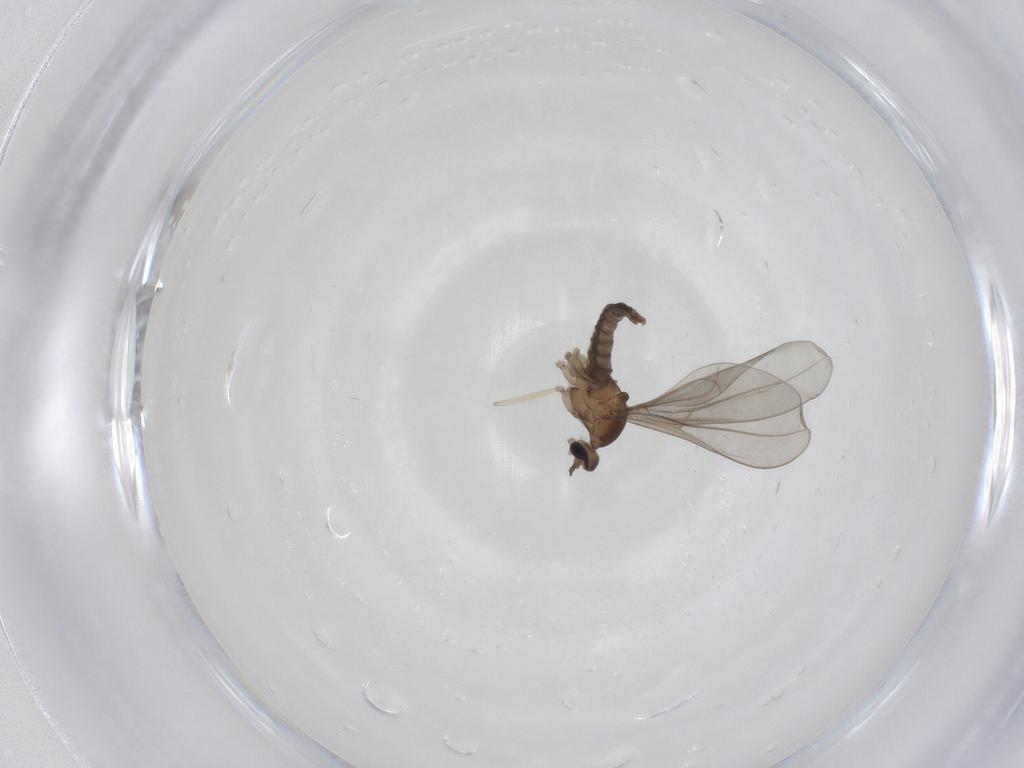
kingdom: Animalia
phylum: Arthropoda
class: Insecta
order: Diptera
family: Cecidomyiidae
